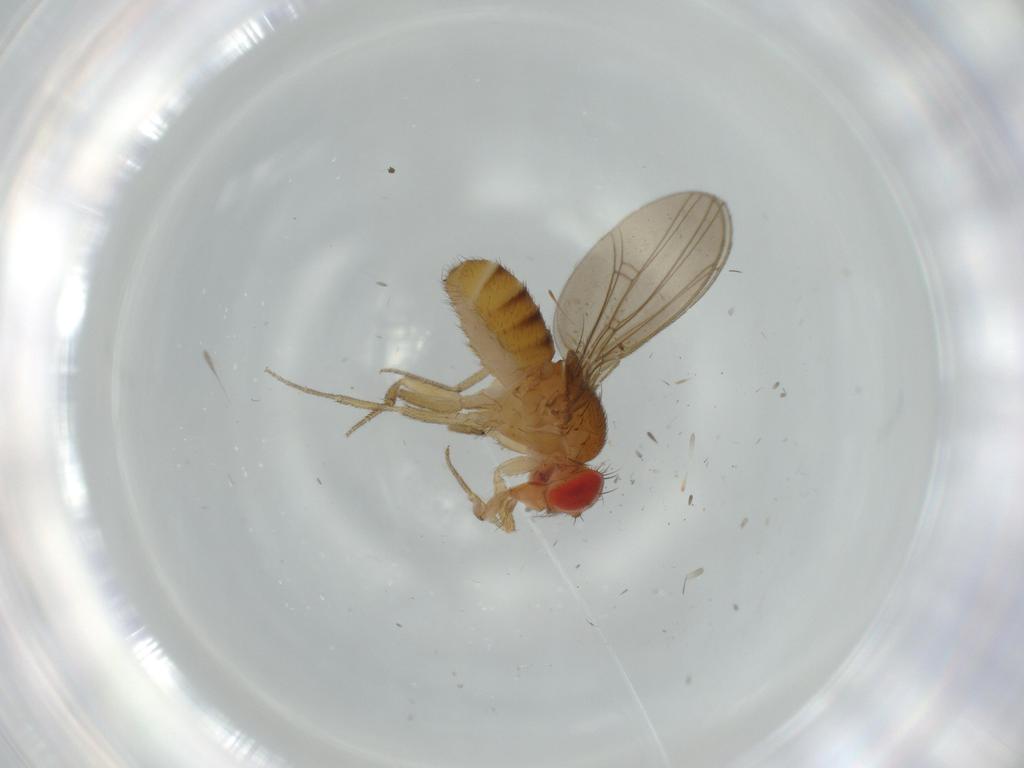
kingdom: Animalia
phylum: Arthropoda
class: Insecta
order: Diptera
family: Drosophilidae
